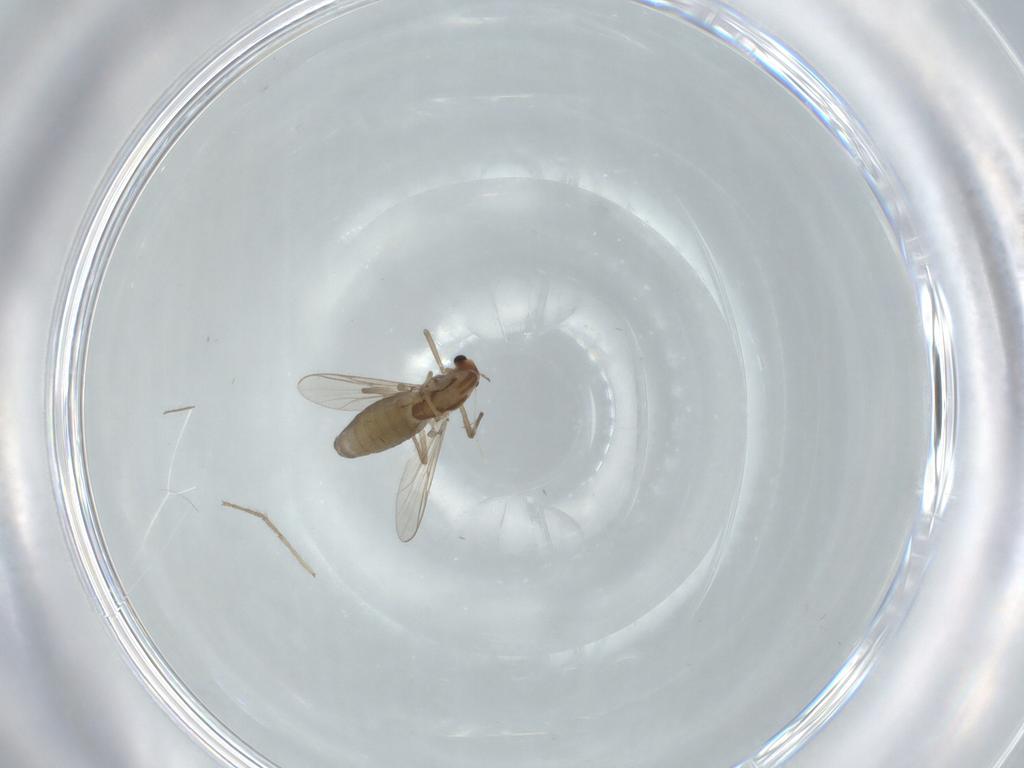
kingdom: Animalia
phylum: Arthropoda
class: Insecta
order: Diptera
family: Chironomidae
